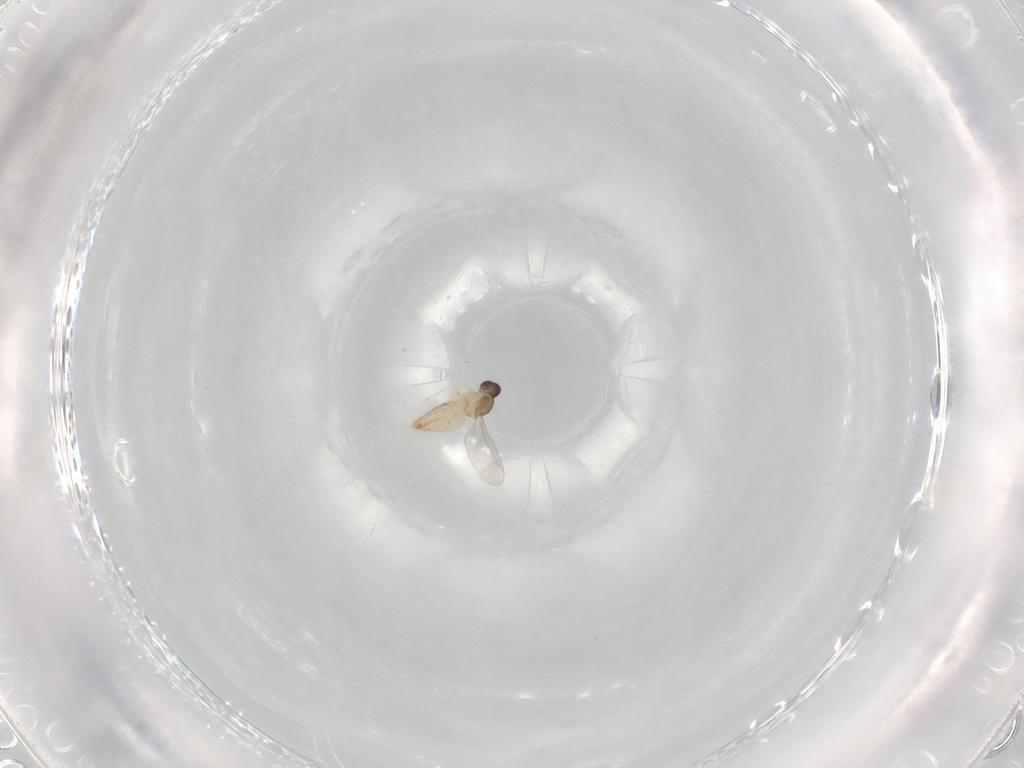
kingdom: Animalia
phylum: Arthropoda
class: Insecta
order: Diptera
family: Cecidomyiidae
